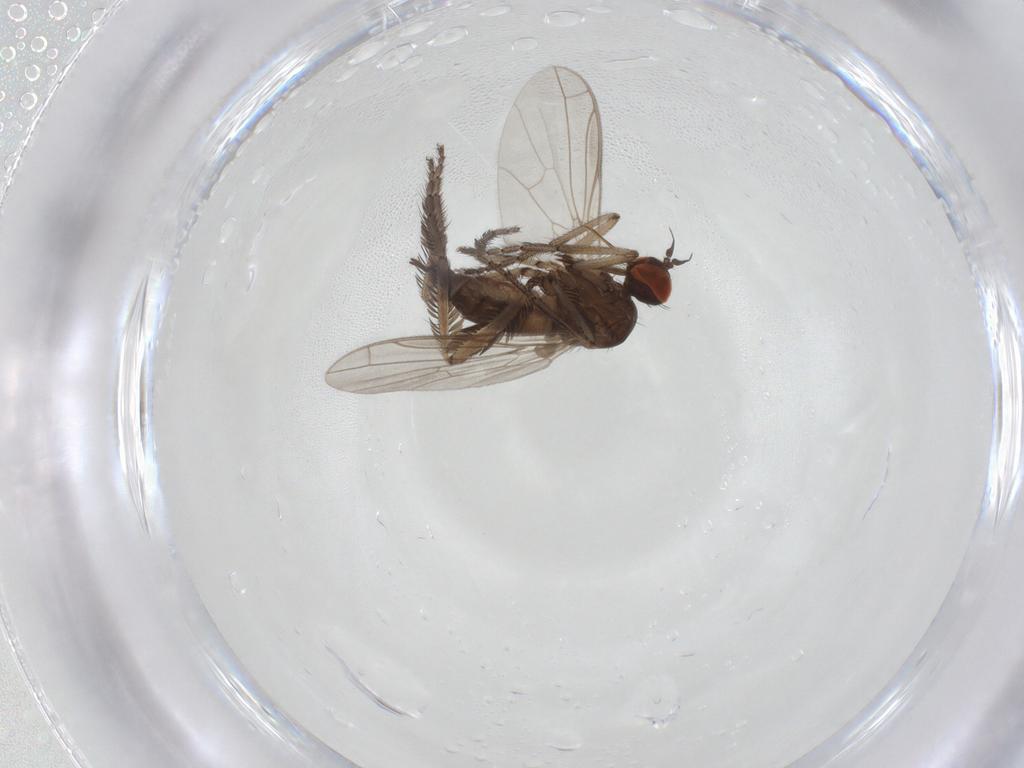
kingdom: Animalia
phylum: Arthropoda
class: Insecta
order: Diptera
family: Empididae
